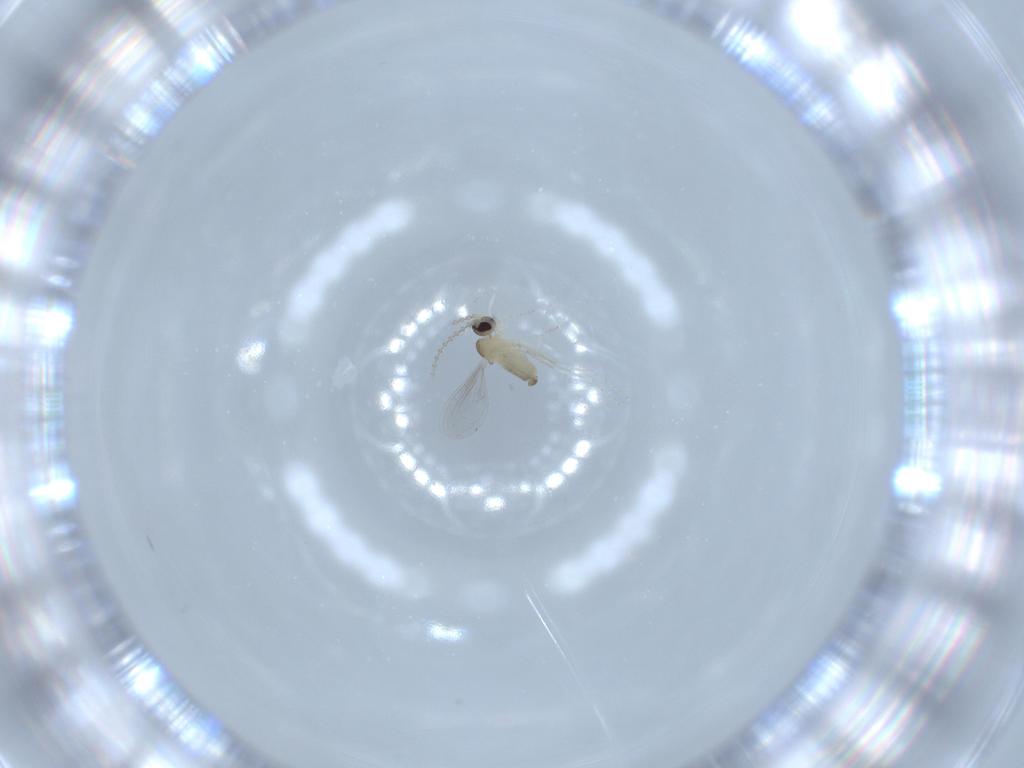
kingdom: Animalia
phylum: Arthropoda
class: Insecta
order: Diptera
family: Cecidomyiidae
